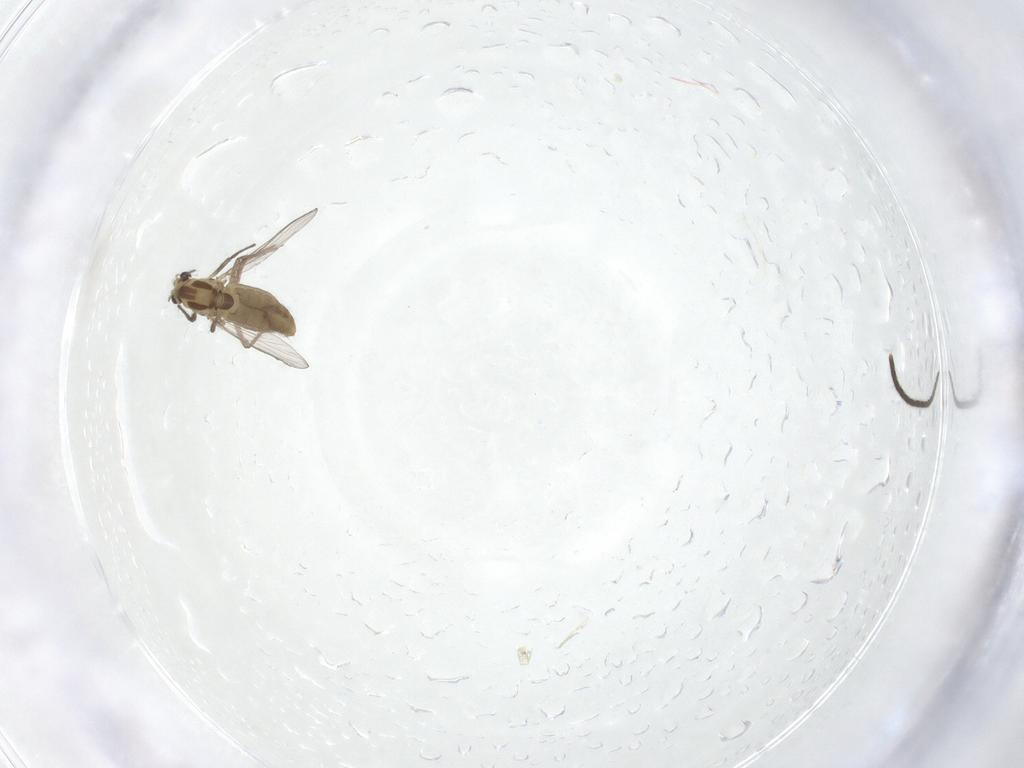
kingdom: Animalia
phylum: Arthropoda
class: Insecta
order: Diptera
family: Chironomidae
